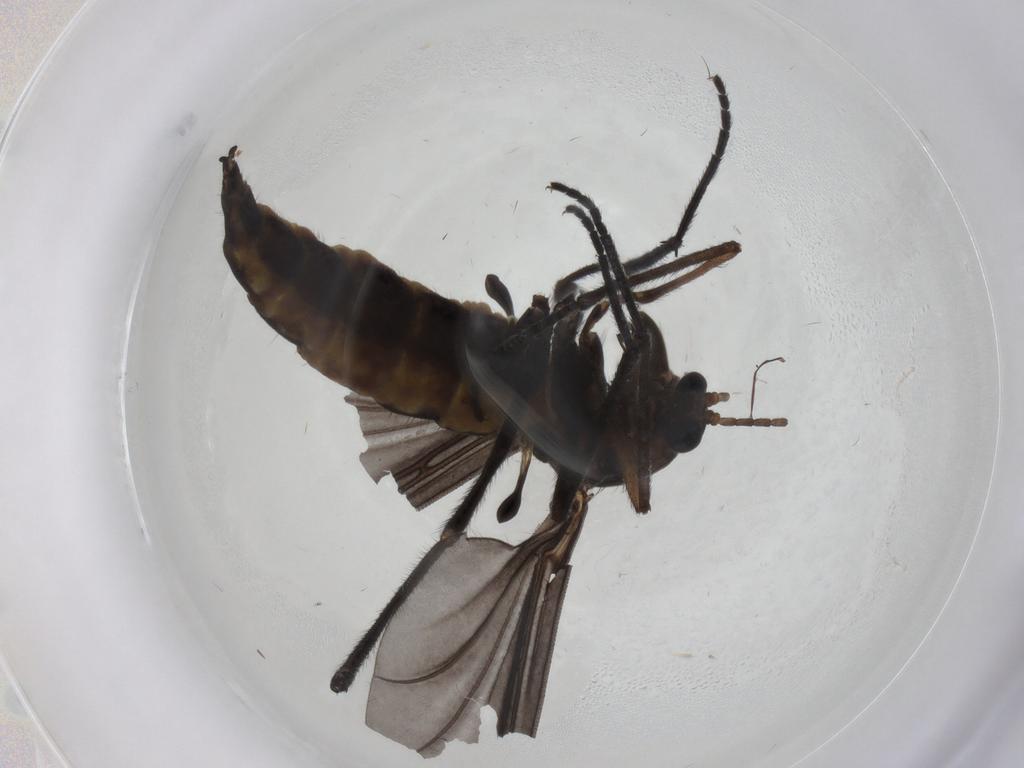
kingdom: Animalia
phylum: Arthropoda
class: Insecta
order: Diptera
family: Sciaridae
